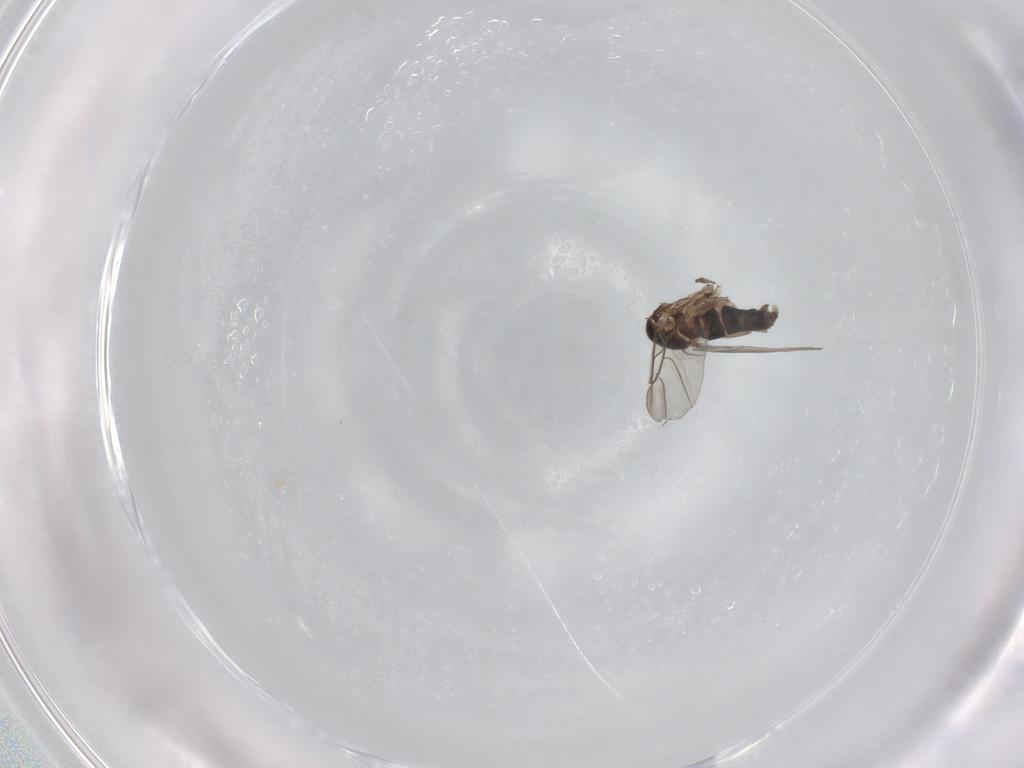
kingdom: Animalia
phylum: Arthropoda
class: Insecta
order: Diptera
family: Phoridae
